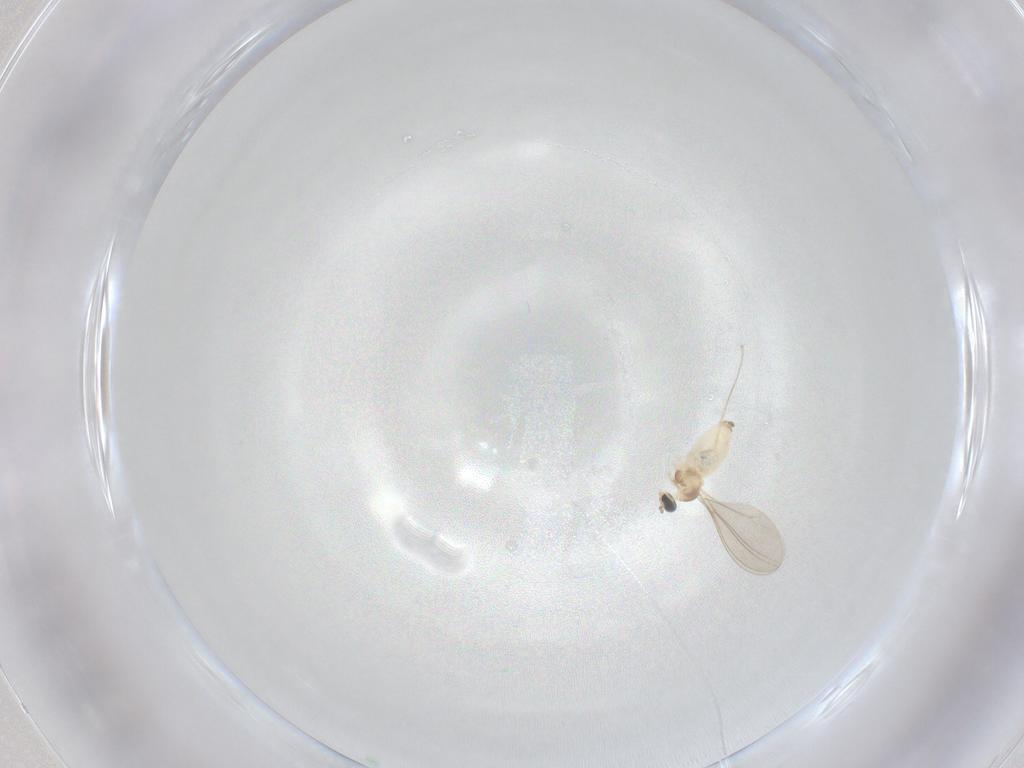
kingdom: Animalia
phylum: Arthropoda
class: Insecta
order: Diptera
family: Cecidomyiidae
